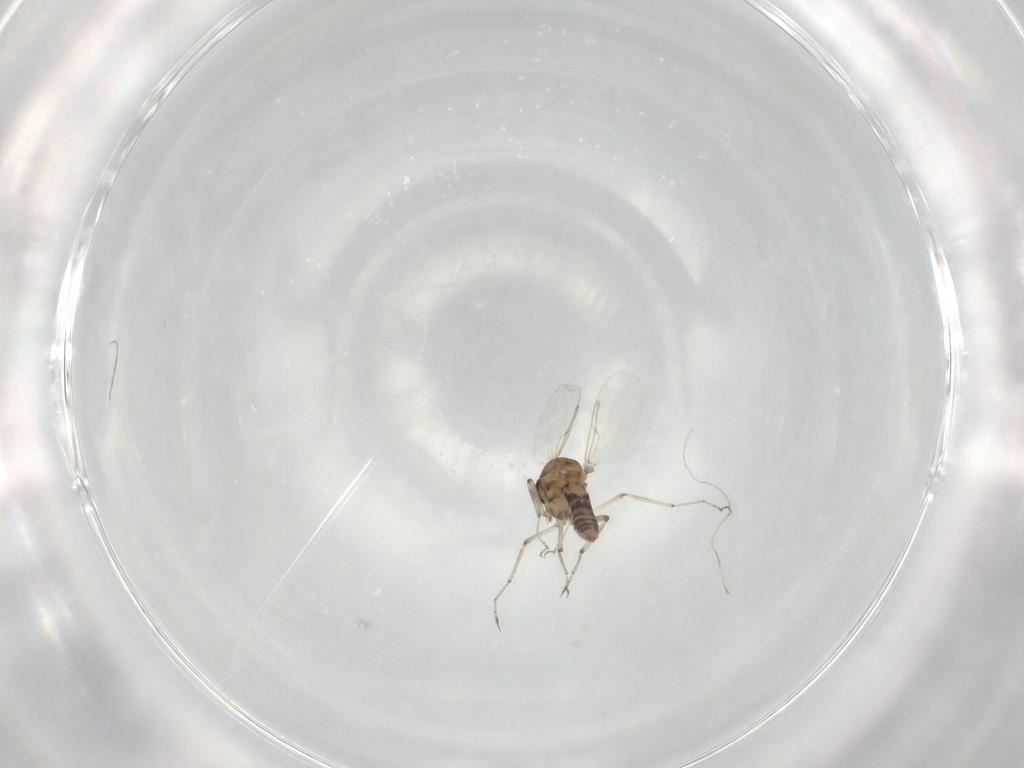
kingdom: Animalia
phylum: Arthropoda
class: Insecta
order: Diptera
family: Ceratopogonidae
